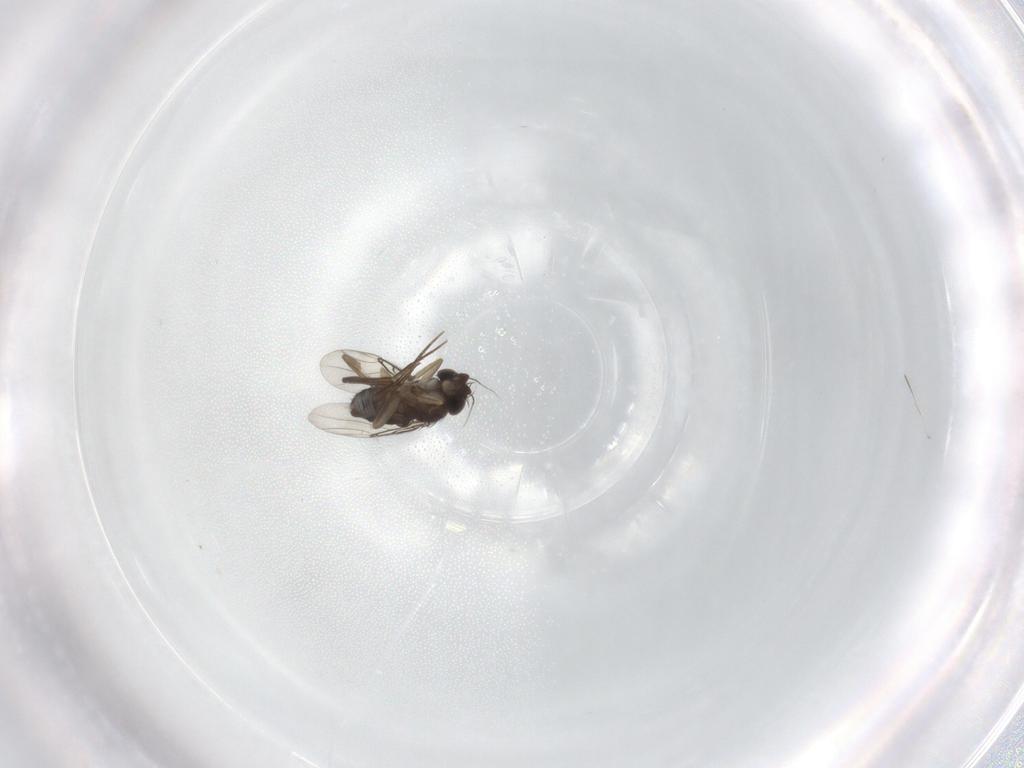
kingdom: Animalia
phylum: Arthropoda
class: Insecta
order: Diptera
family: Phoridae
